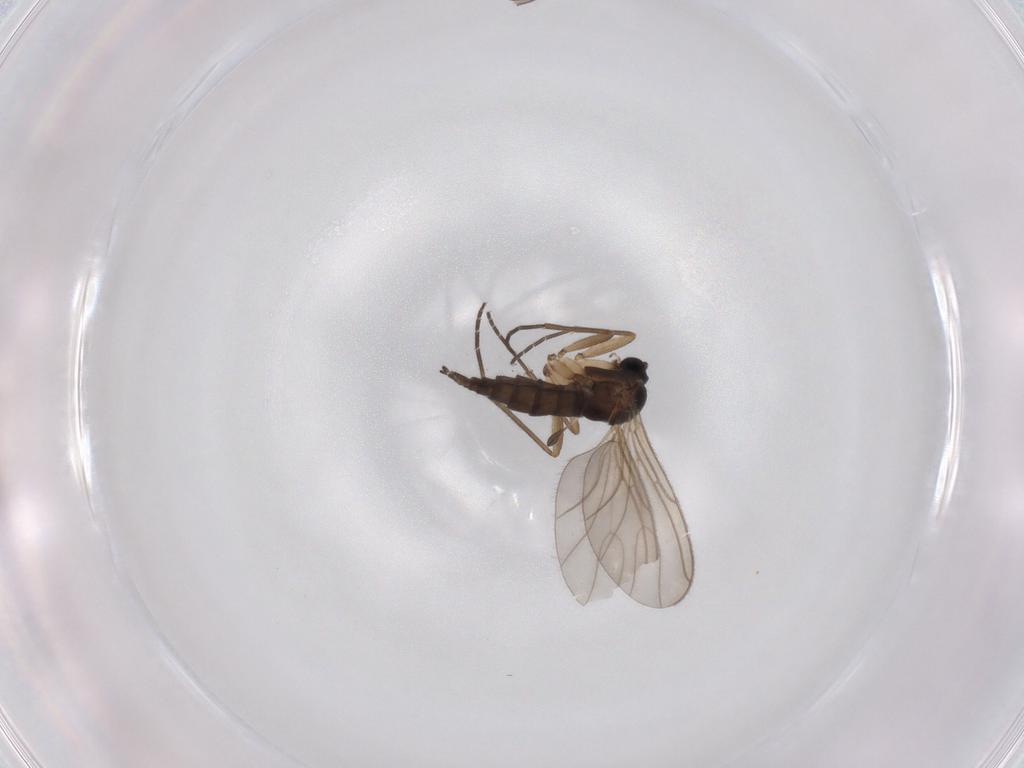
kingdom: Animalia
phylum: Arthropoda
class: Insecta
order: Diptera
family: Sciaridae
